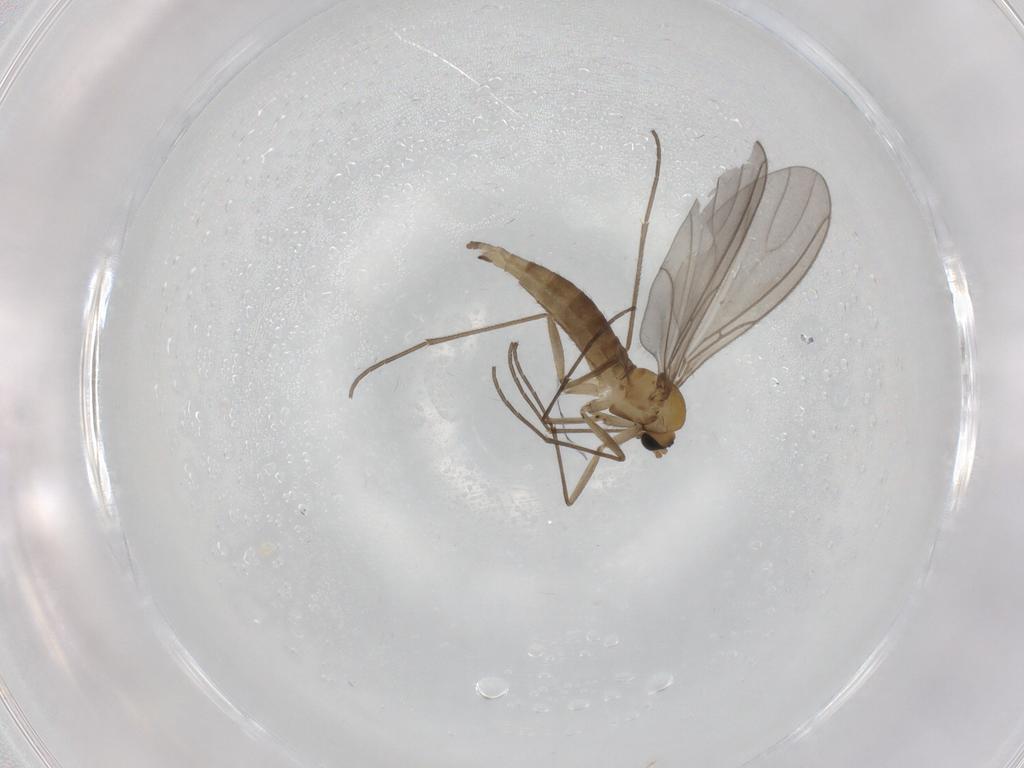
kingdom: Animalia
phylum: Arthropoda
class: Insecta
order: Diptera
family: Sciaridae
